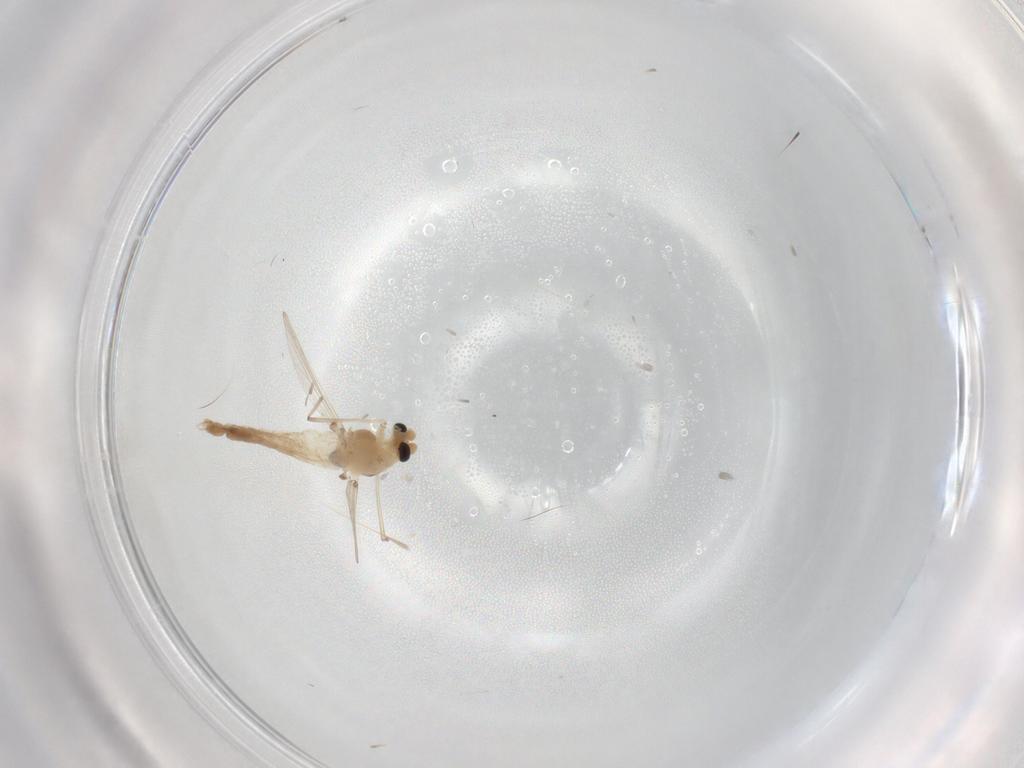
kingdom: Animalia
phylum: Arthropoda
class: Insecta
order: Diptera
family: Chironomidae
